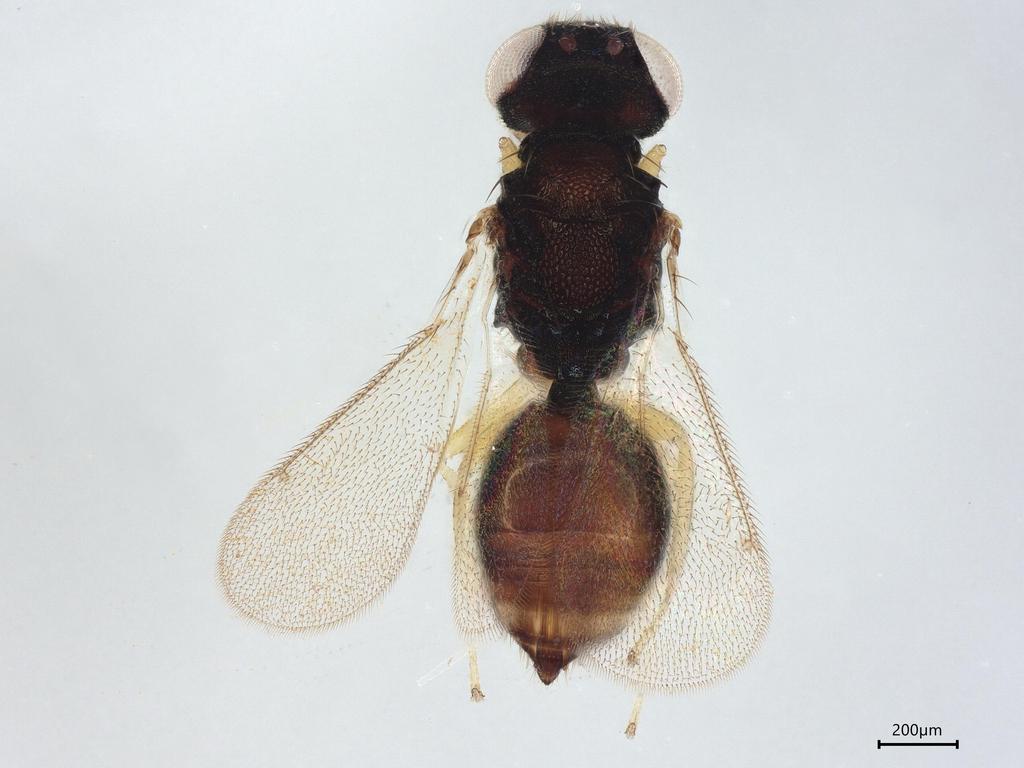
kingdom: Animalia
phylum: Arthropoda
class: Insecta
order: Hymenoptera
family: Eulophidae
